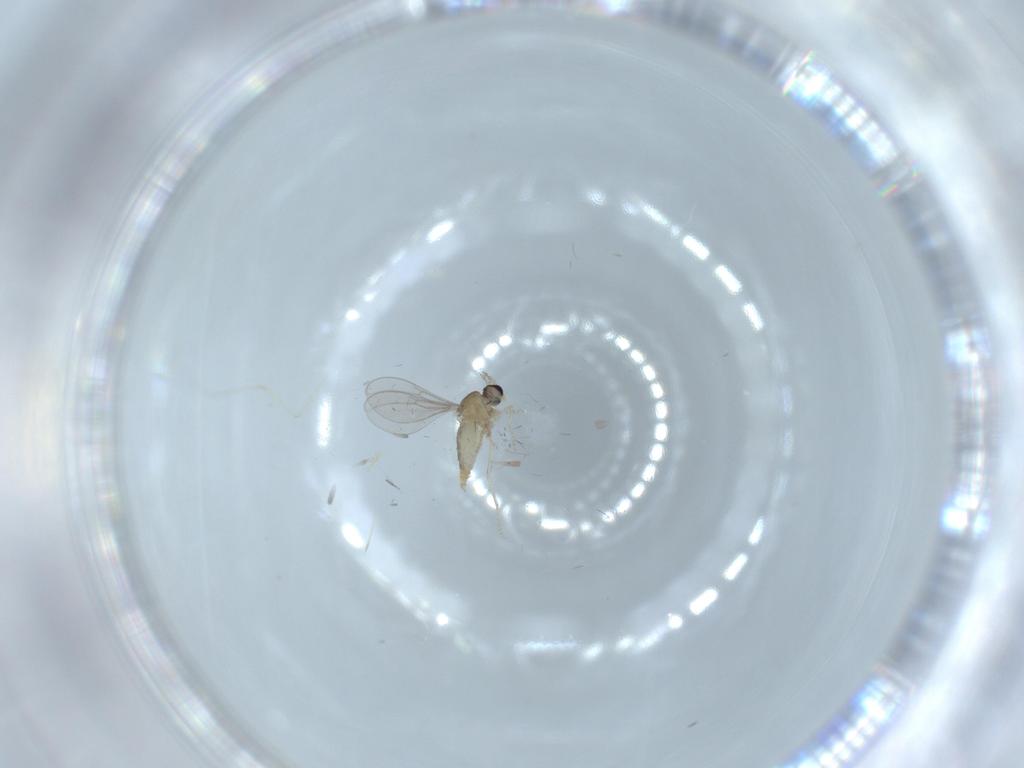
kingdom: Animalia
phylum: Arthropoda
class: Insecta
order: Diptera
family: Cecidomyiidae
